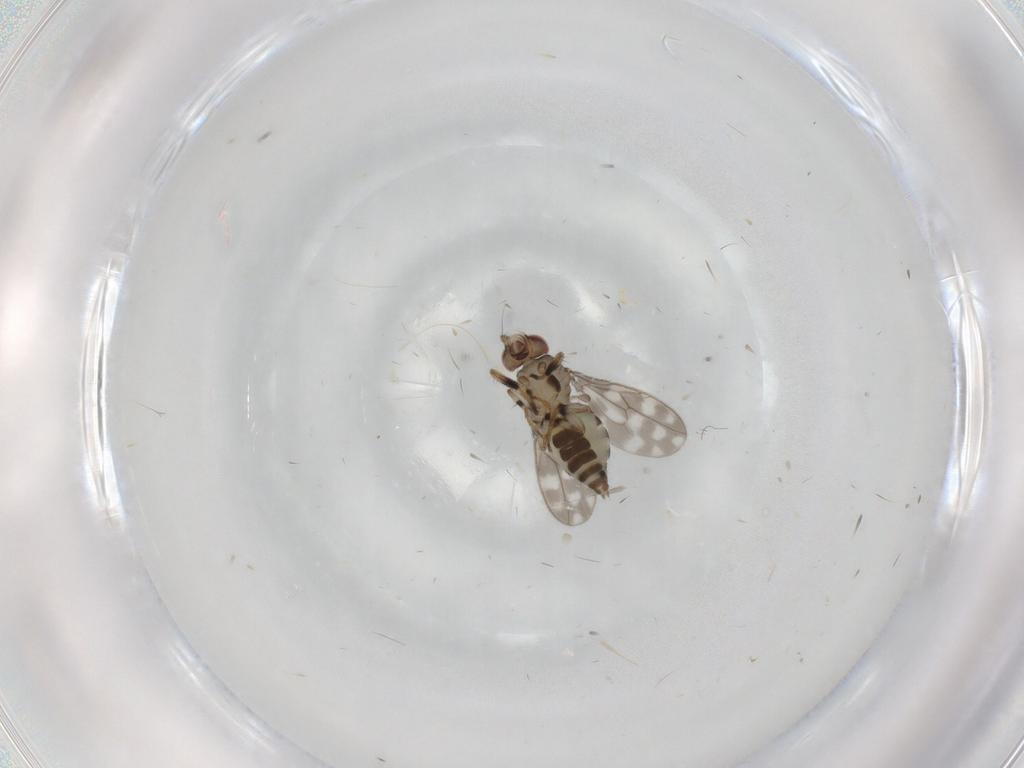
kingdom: Animalia
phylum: Arthropoda
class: Insecta
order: Diptera
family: Sphaeroceridae
